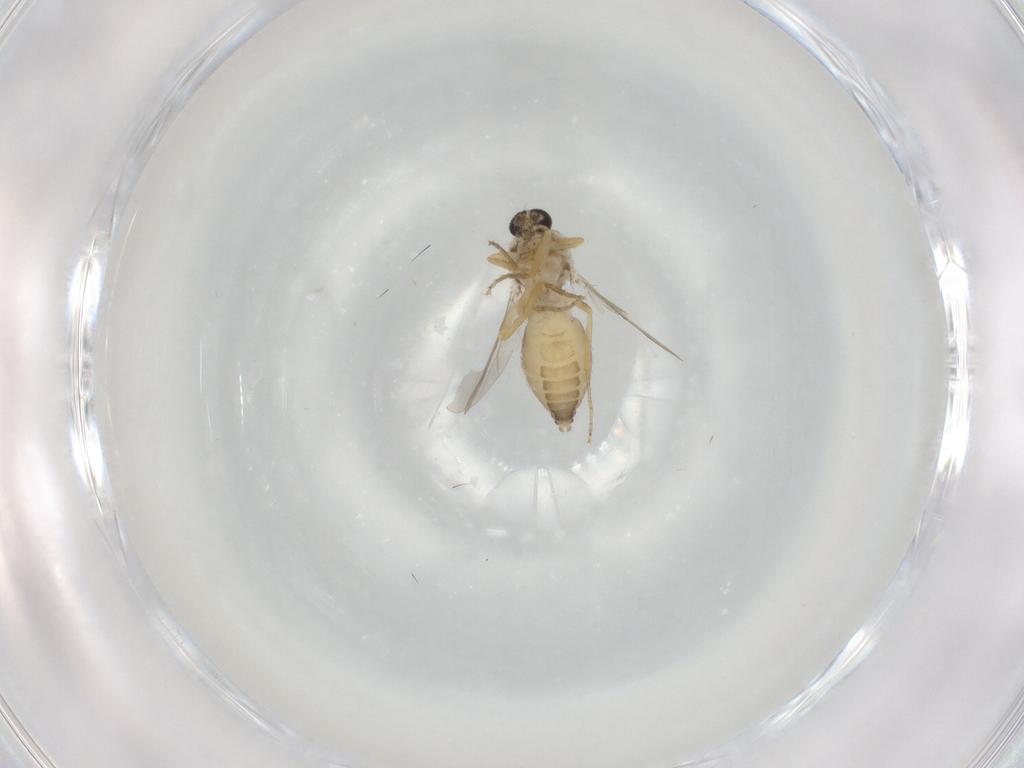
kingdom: Animalia
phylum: Arthropoda
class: Insecta
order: Diptera
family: Ceratopogonidae
